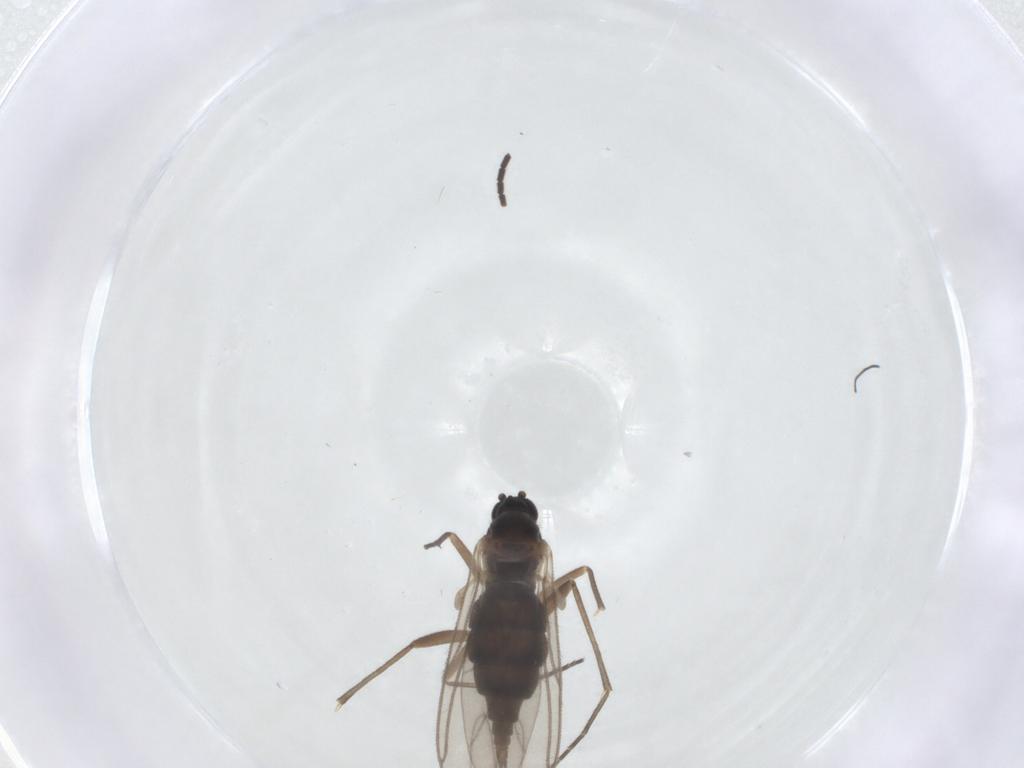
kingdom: Animalia
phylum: Arthropoda
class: Insecta
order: Diptera
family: Sciaridae
